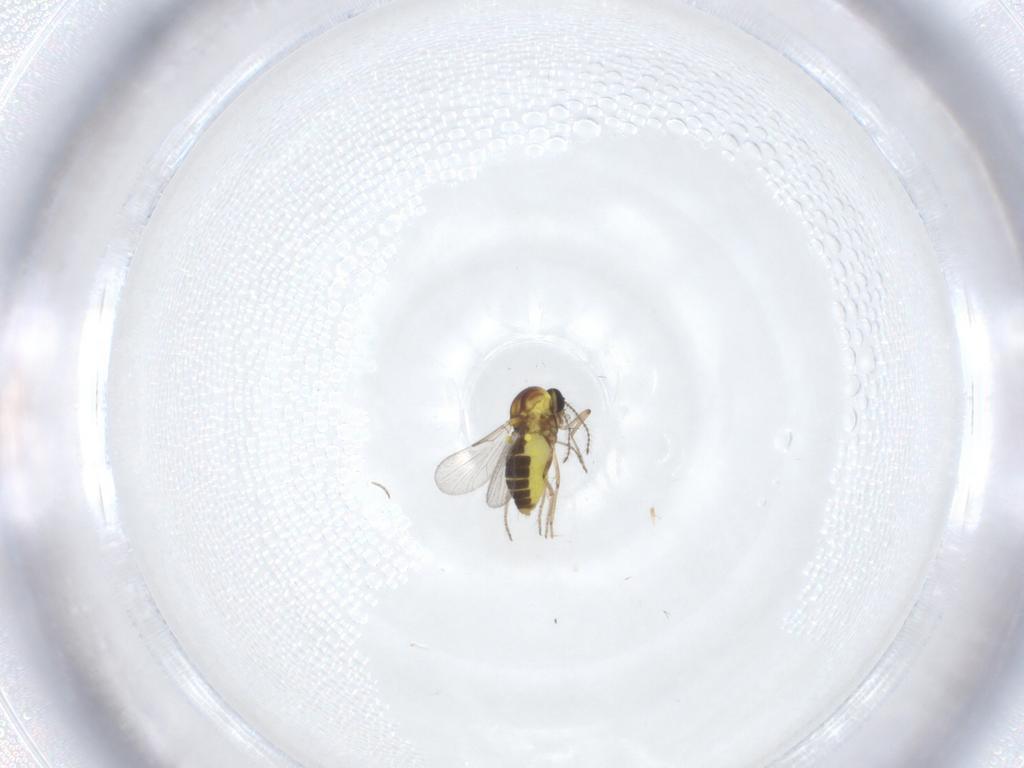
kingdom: Animalia
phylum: Arthropoda
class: Insecta
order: Diptera
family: Ceratopogonidae
